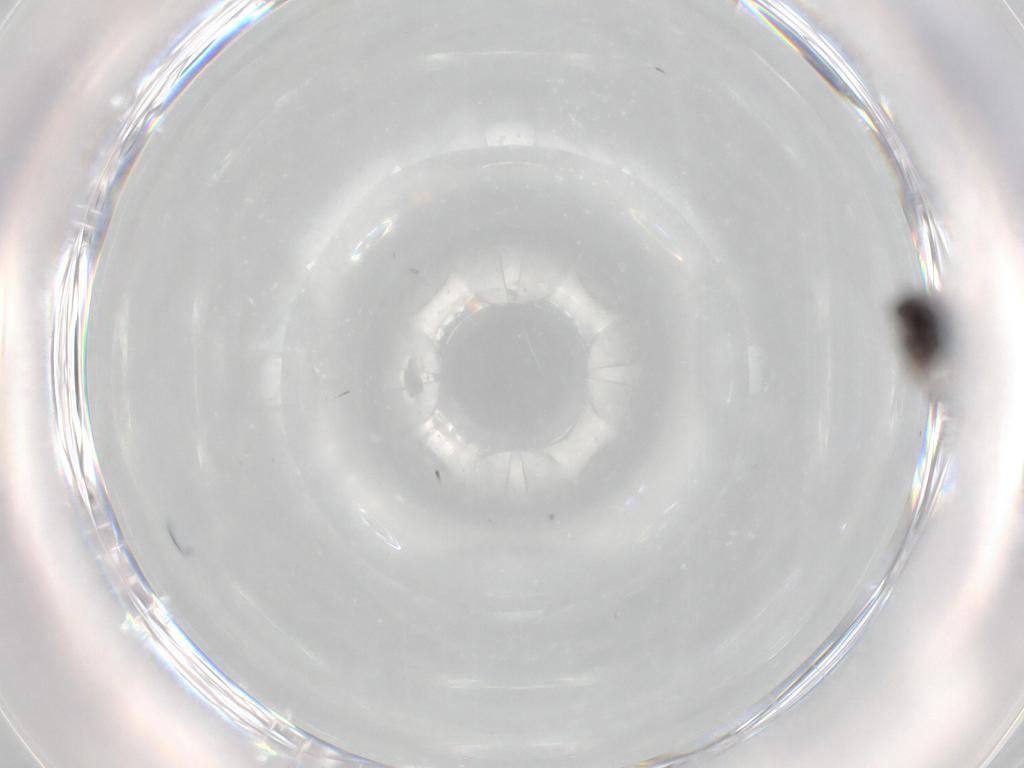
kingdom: Animalia
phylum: Arthropoda
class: Insecta
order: Diptera
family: Ceratopogonidae
